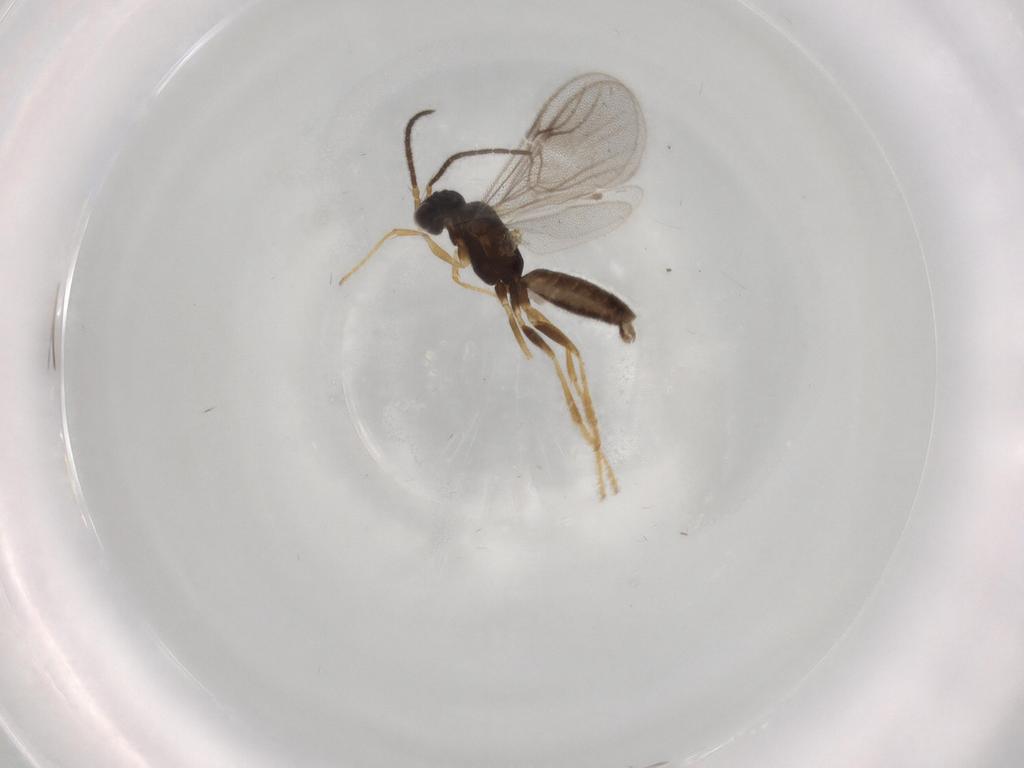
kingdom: Animalia
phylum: Arthropoda
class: Insecta
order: Hymenoptera
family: Dryinidae
